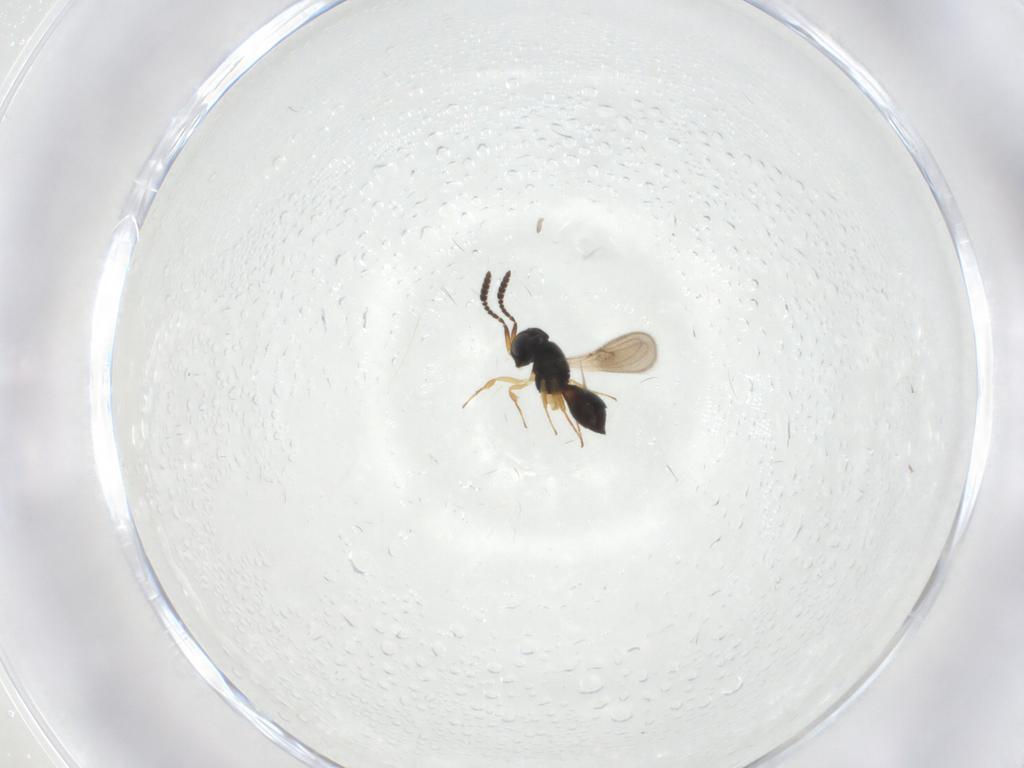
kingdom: Animalia
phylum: Arthropoda
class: Insecta
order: Hymenoptera
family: Scelionidae
